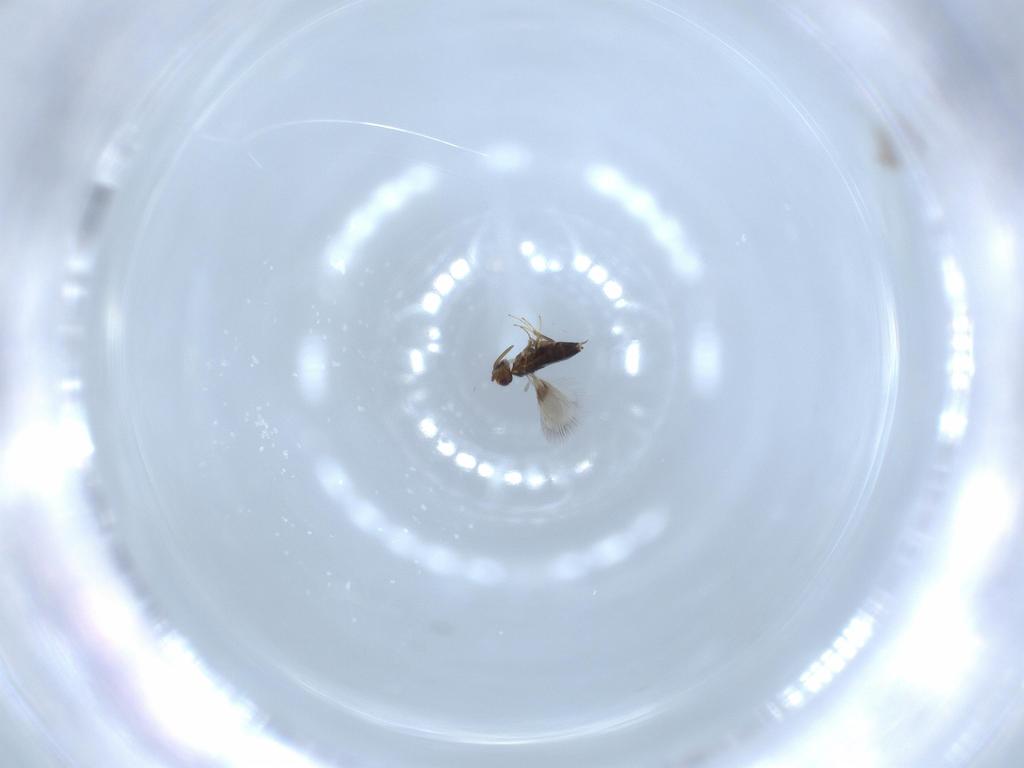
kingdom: Animalia
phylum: Arthropoda
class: Insecta
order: Hymenoptera
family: Signiphoridae
